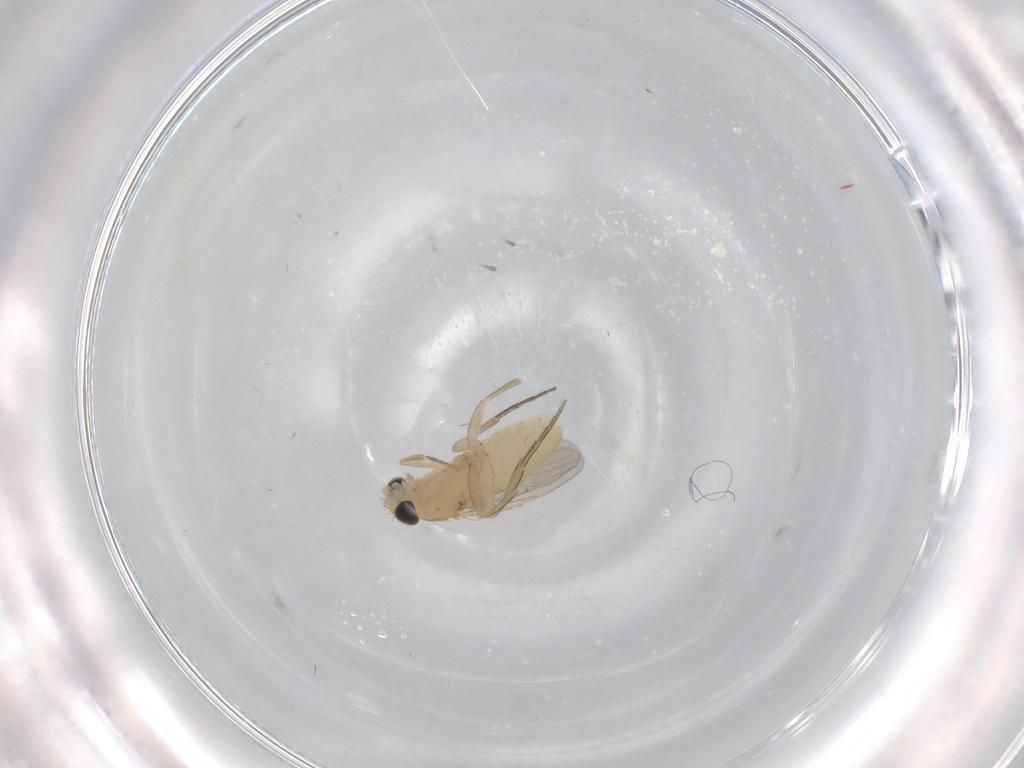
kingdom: Animalia
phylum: Arthropoda
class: Insecta
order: Diptera
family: Phoridae
